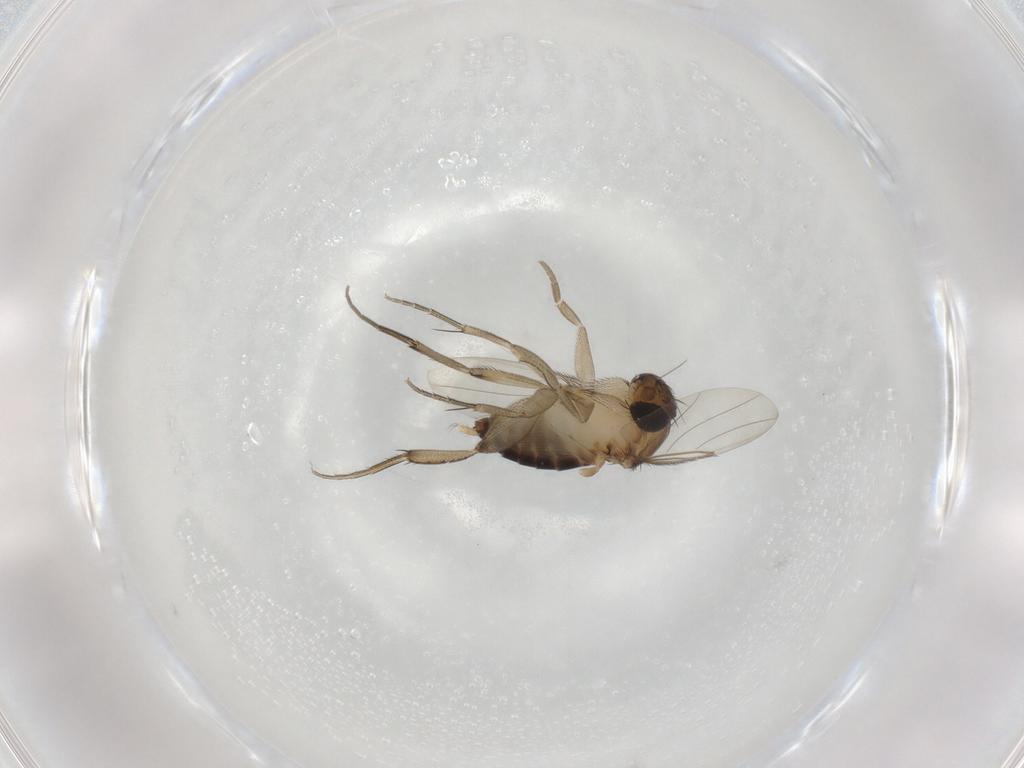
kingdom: Animalia
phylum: Arthropoda
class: Insecta
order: Diptera
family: Phoridae
